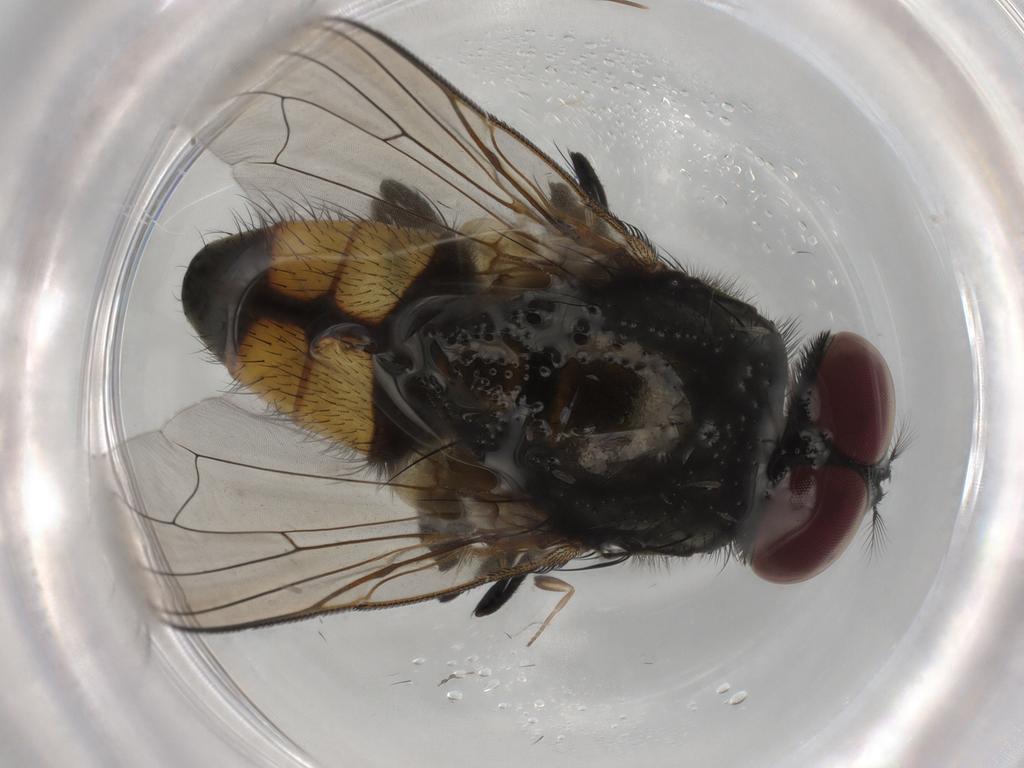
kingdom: Animalia
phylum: Arthropoda
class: Insecta
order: Diptera
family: Muscidae
